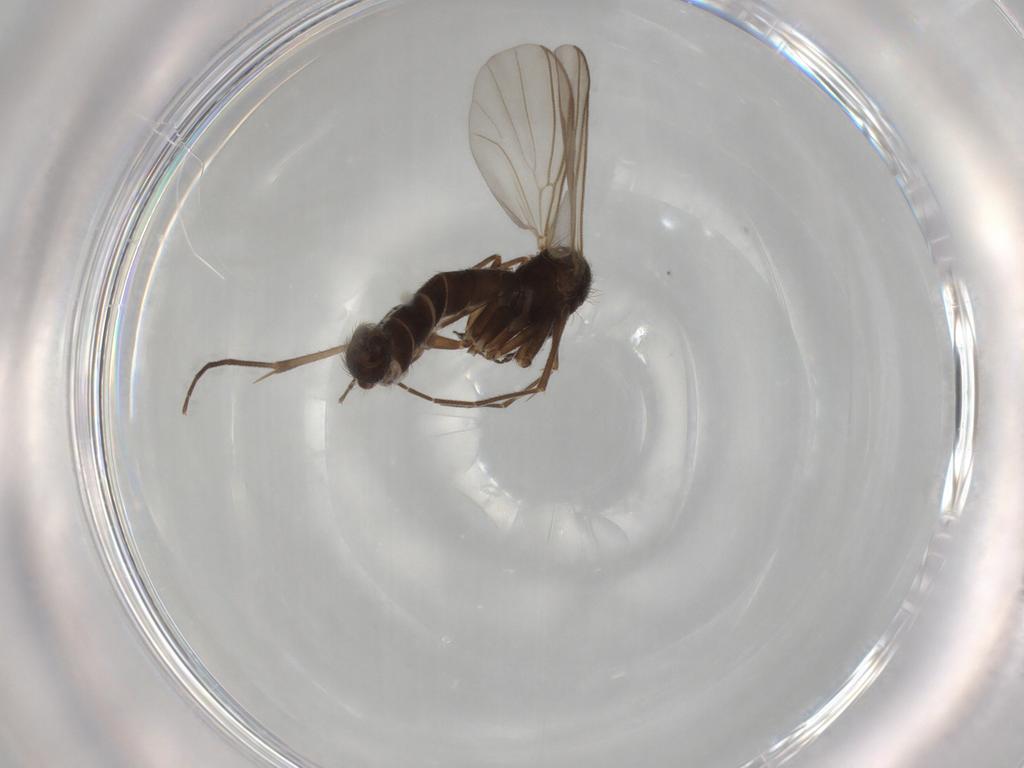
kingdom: Animalia
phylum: Arthropoda
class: Insecta
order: Diptera
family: Mycetophilidae
